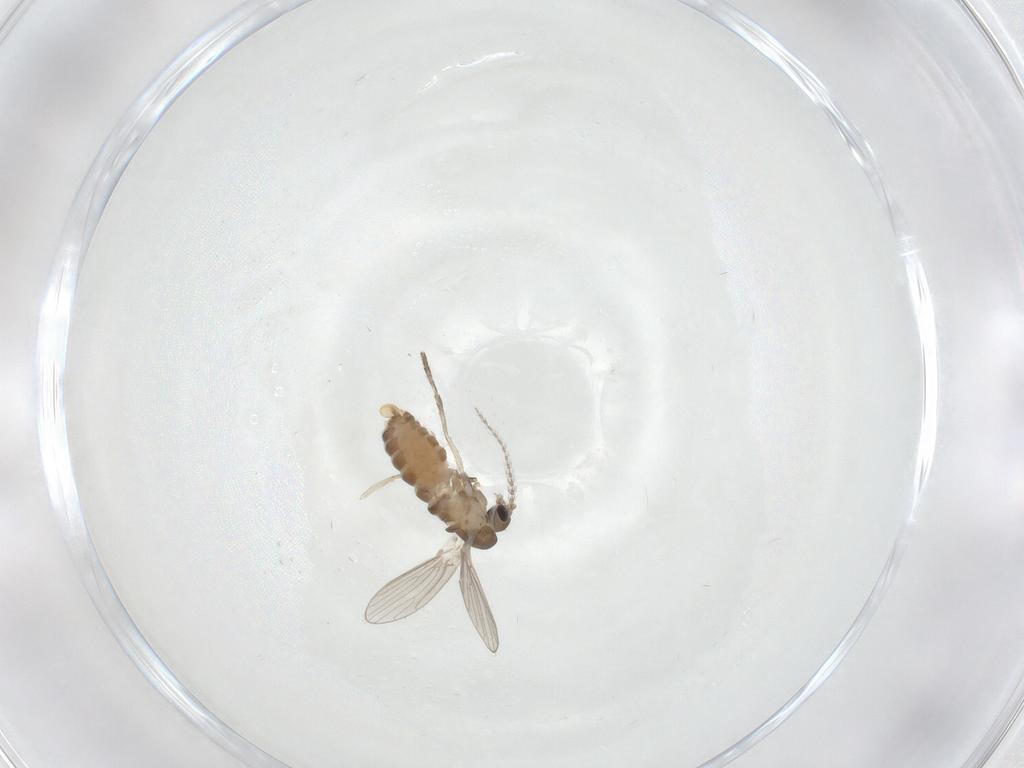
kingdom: Animalia
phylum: Arthropoda
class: Insecta
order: Diptera
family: Psychodidae
